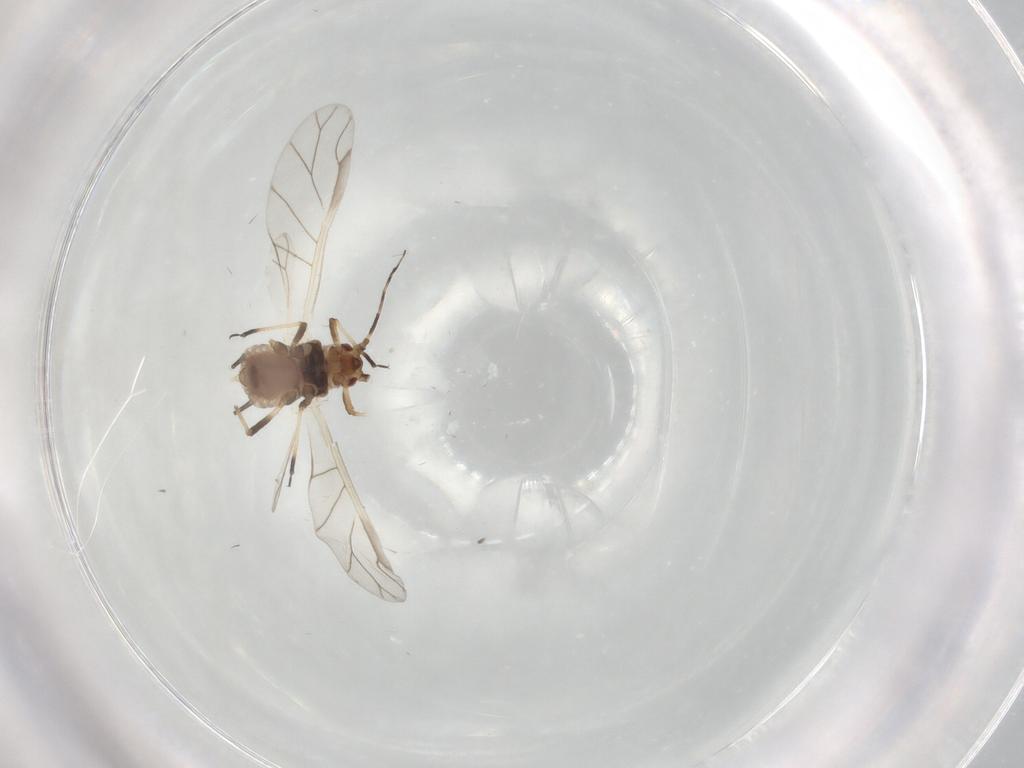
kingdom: Animalia
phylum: Arthropoda
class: Insecta
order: Hemiptera
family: Aphididae
